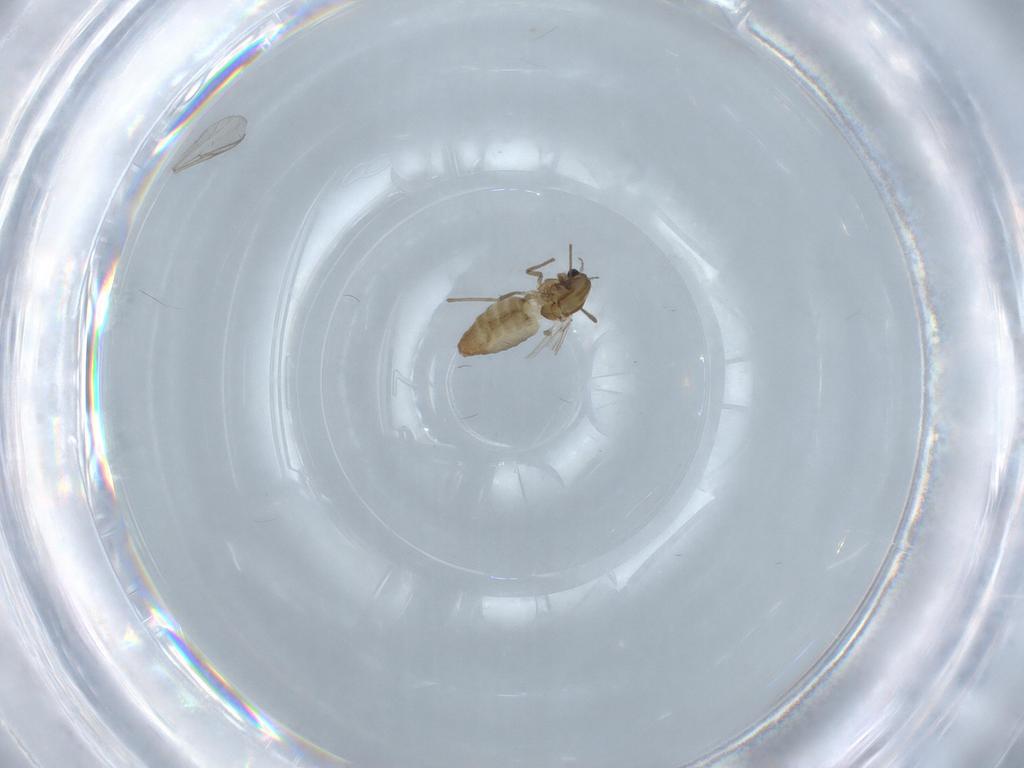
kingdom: Animalia
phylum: Arthropoda
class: Insecta
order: Diptera
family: Chironomidae
